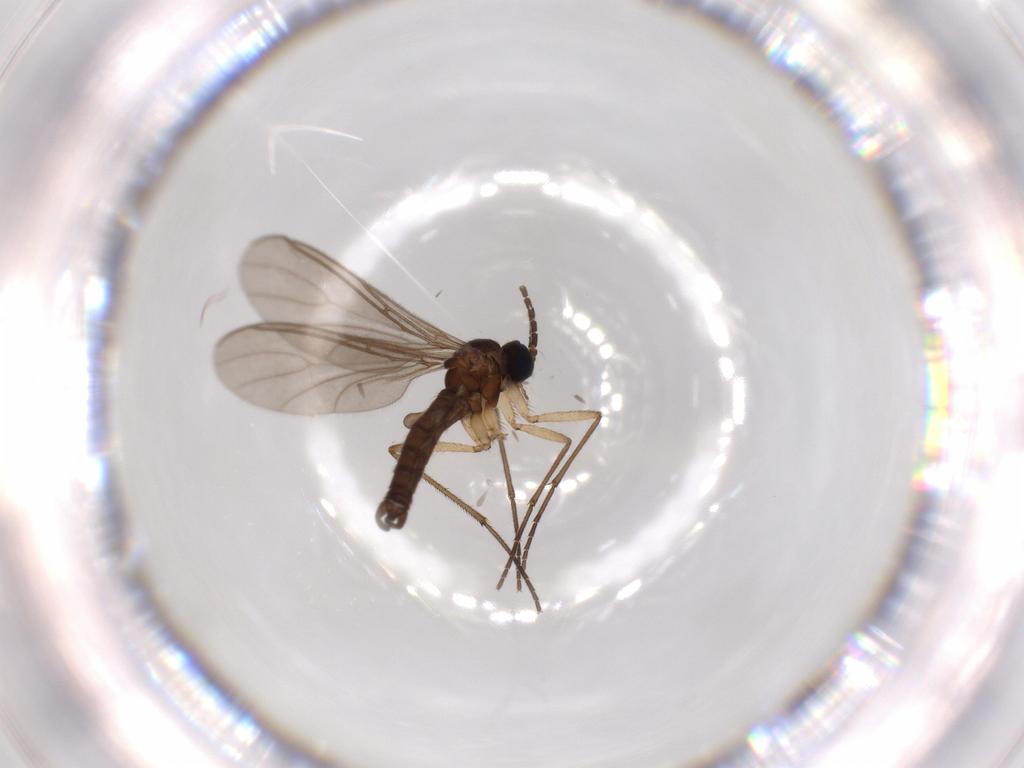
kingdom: Animalia
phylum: Arthropoda
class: Insecta
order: Diptera
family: Sciaridae
